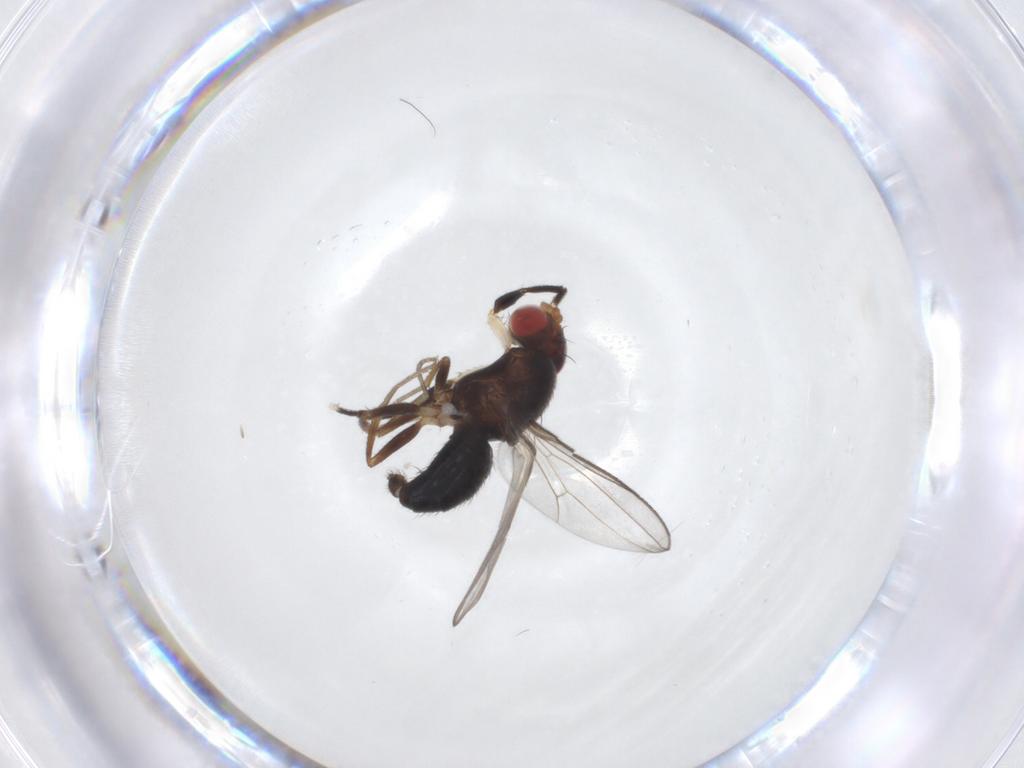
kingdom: Animalia
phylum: Arthropoda
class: Insecta
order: Diptera
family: Drosophilidae
